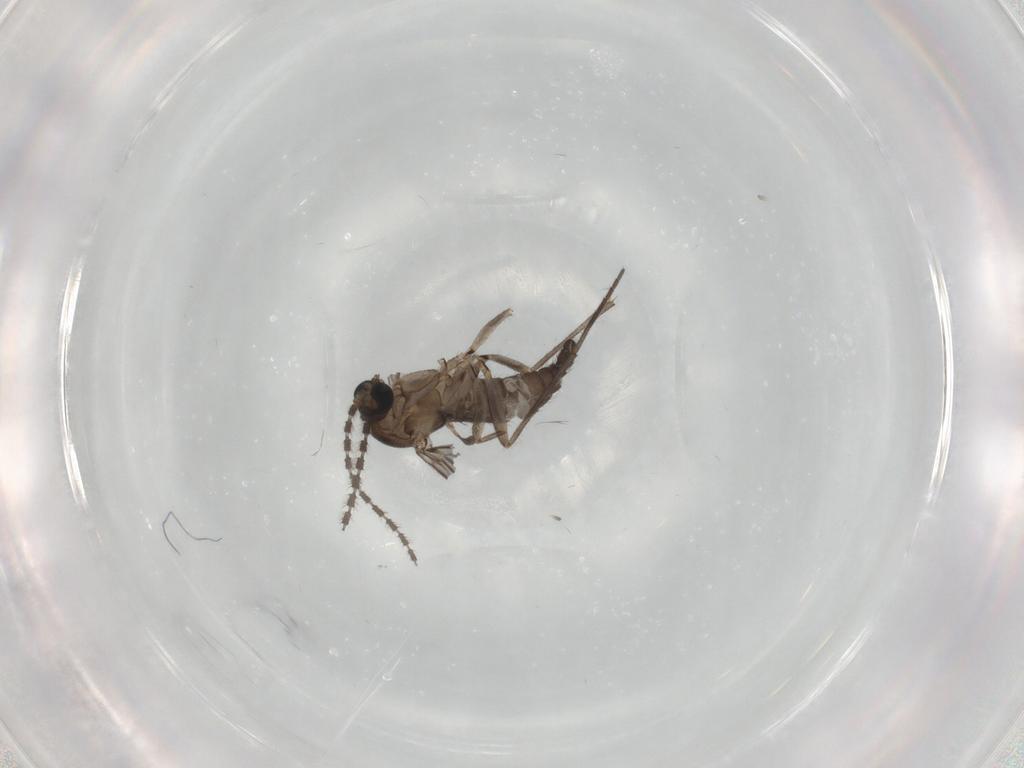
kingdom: Animalia
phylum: Arthropoda
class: Insecta
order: Diptera
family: Sciaridae
